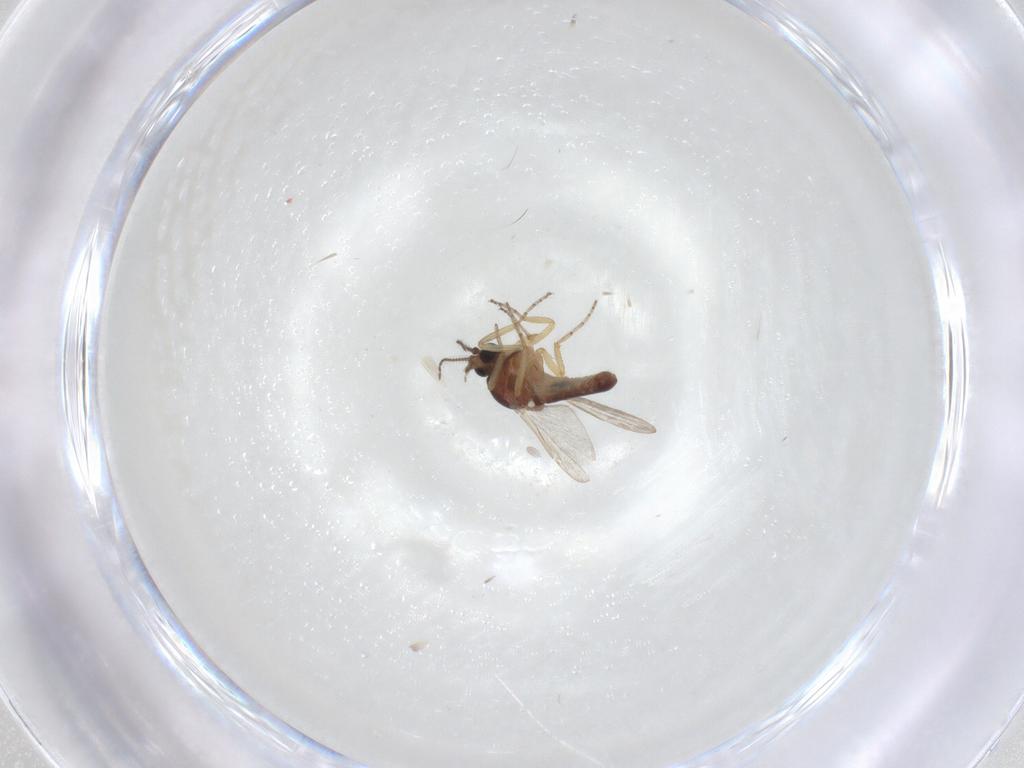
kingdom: Animalia
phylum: Arthropoda
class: Insecta
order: Diptera
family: Ceratopogonidae
